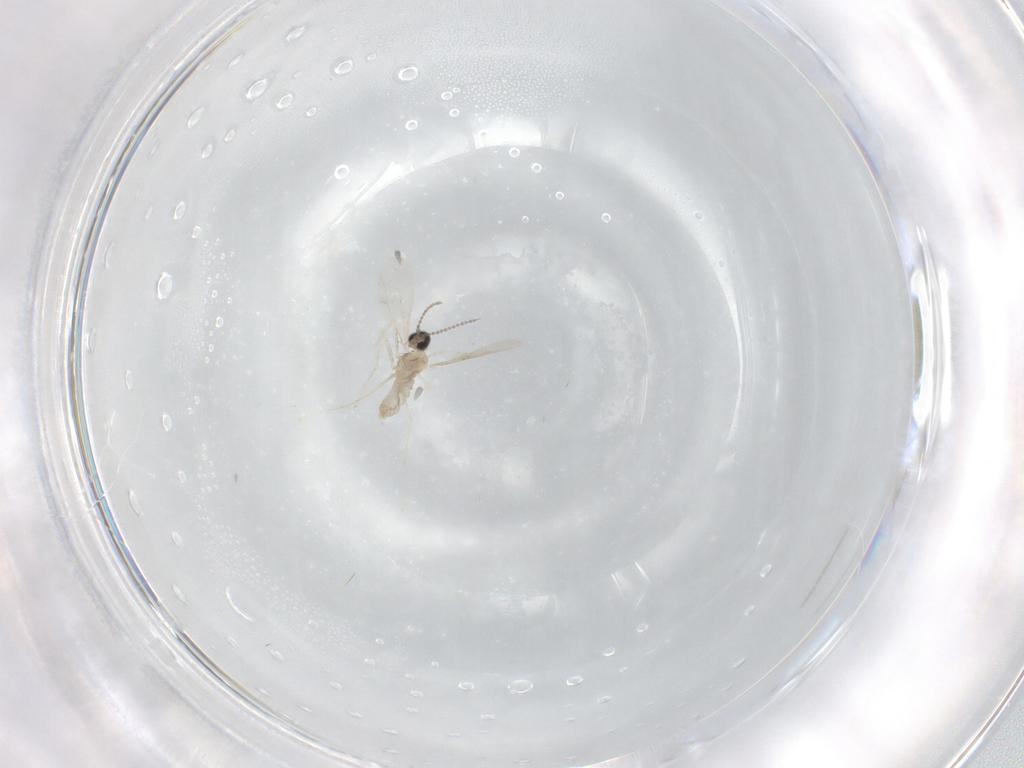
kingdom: Animalia
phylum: Arthropoda
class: Insecta
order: Diptera
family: Cecidomyiidae
